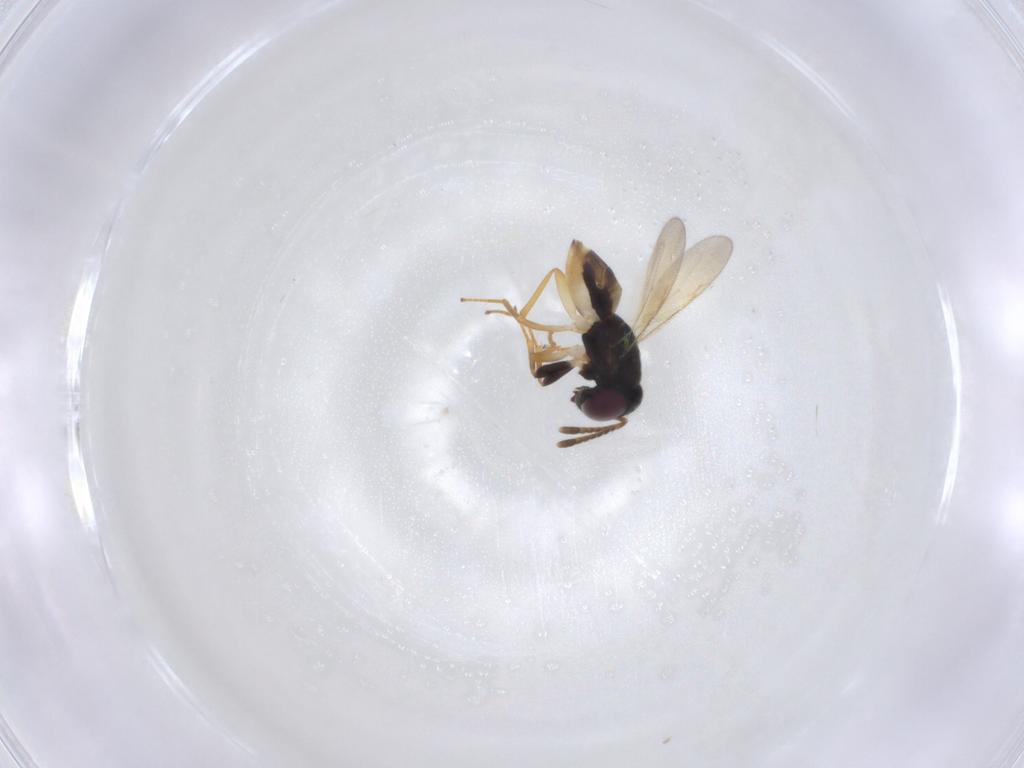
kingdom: Animalia
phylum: Arthropoda
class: Insecta
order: Hymenoptera
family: Encyrtidae
